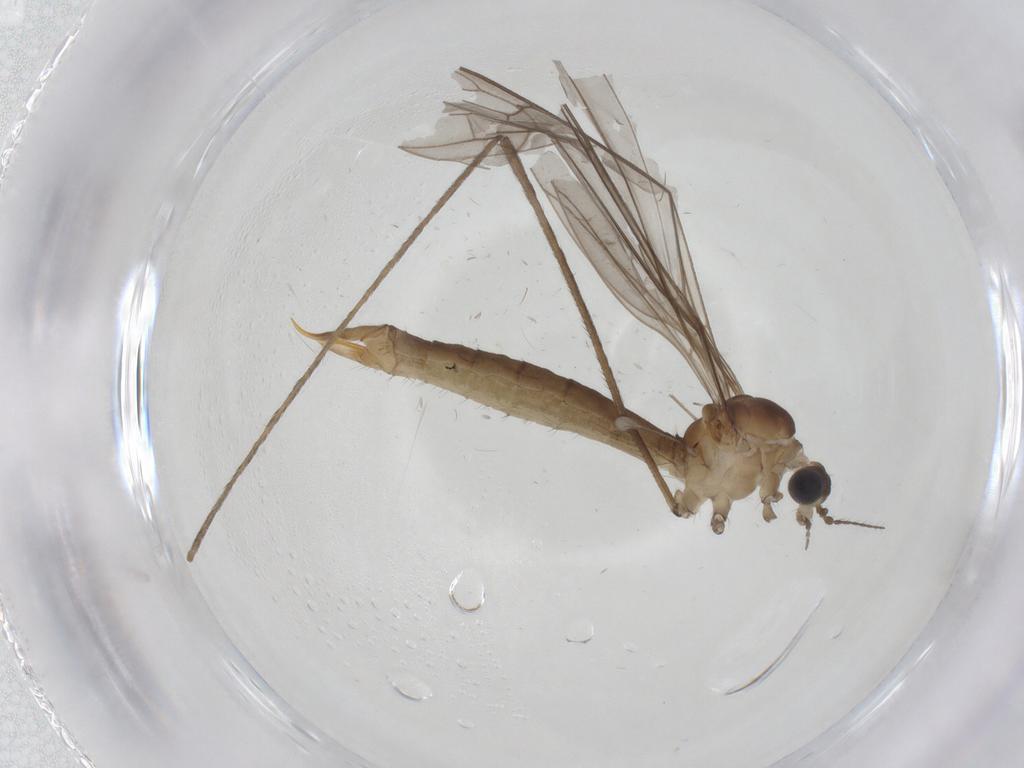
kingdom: Animalia
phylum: Arthropoda
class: Insecta
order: Diptera
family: Limoniidae
